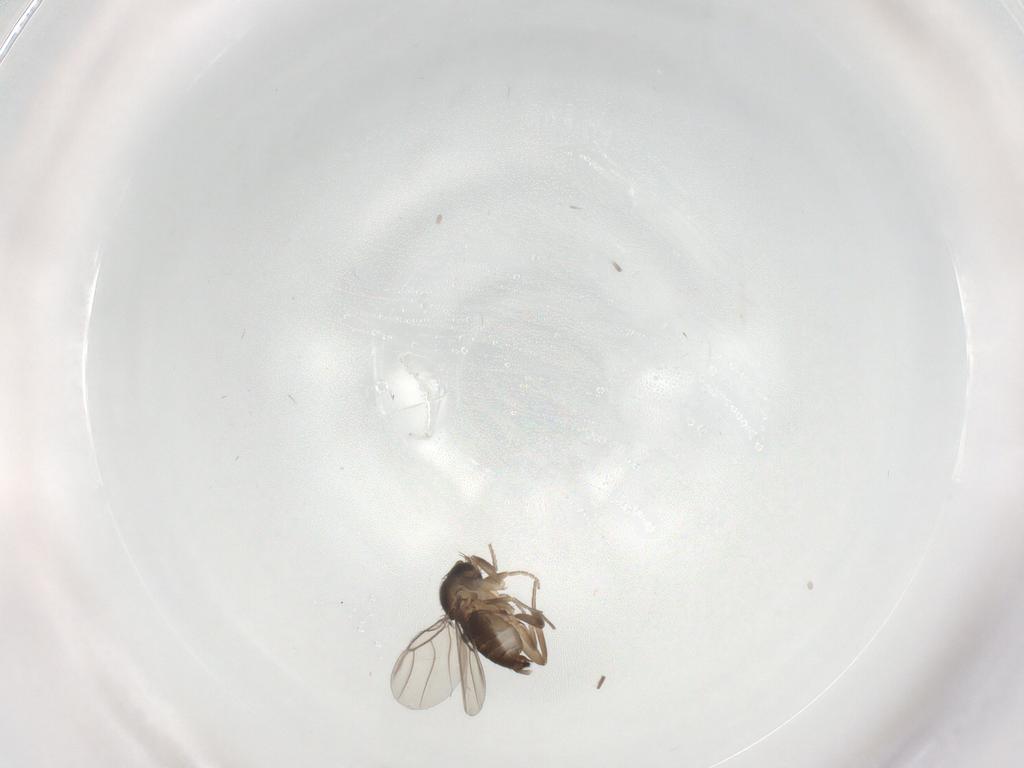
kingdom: Animalia
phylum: Arthropoda
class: Insecta
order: Diptera
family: Phoridae
